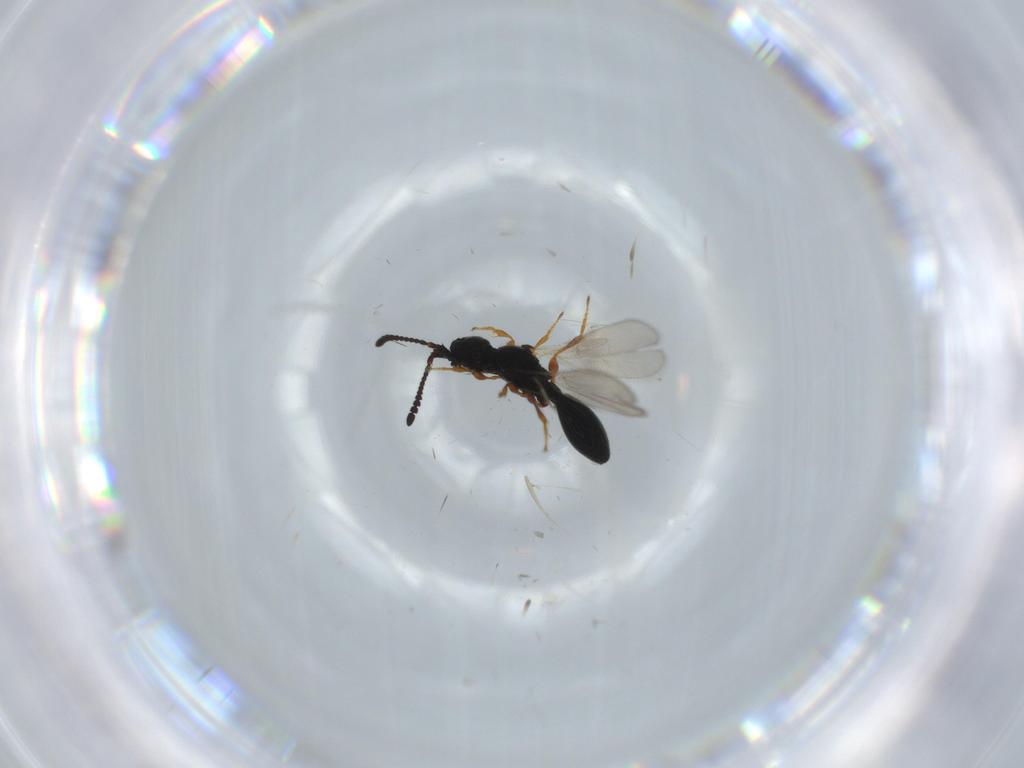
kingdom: Animalia
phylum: Arthropoda
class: Insecta
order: Hymenoptera
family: Diapriidae
